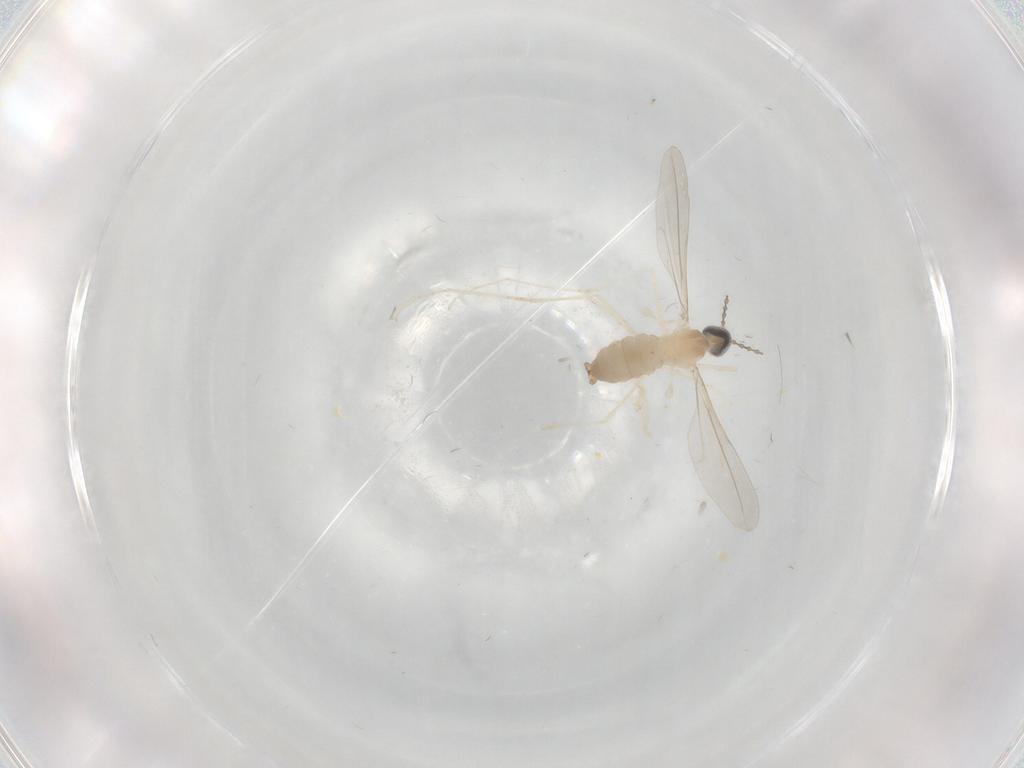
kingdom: Animalia
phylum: Arthropoda
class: Insecta
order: Diptera
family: Cecidomyiidae
